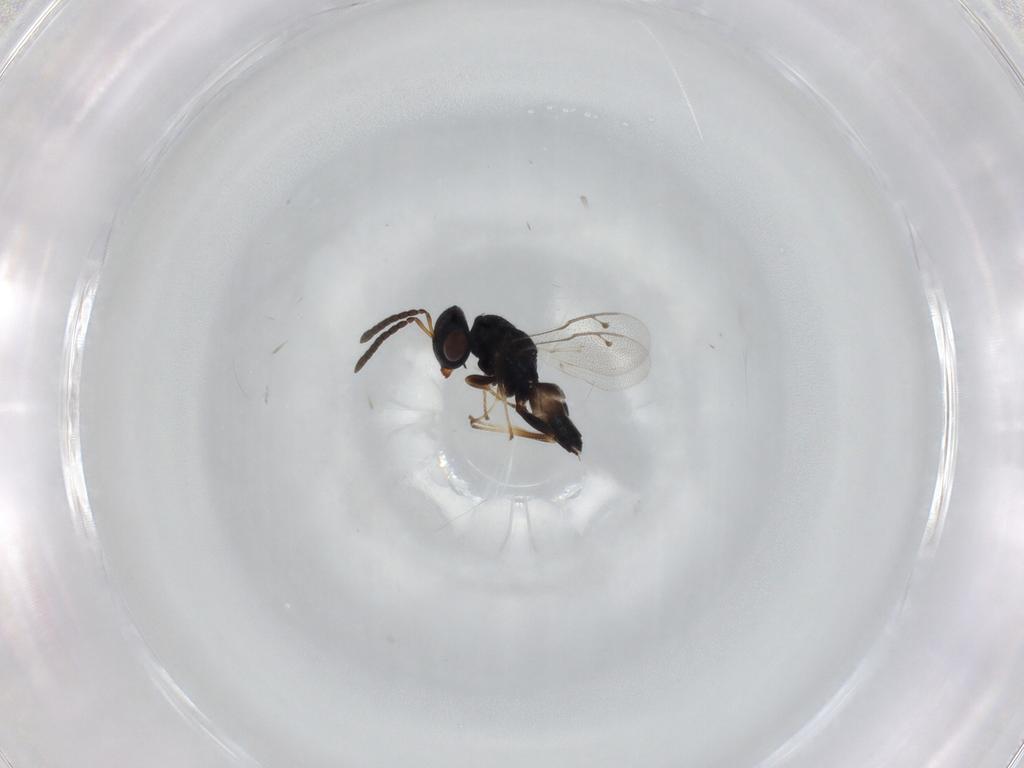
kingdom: Animalia
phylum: Arthropoda
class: Insecta
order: Hymenoptera
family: Pteromalidae
